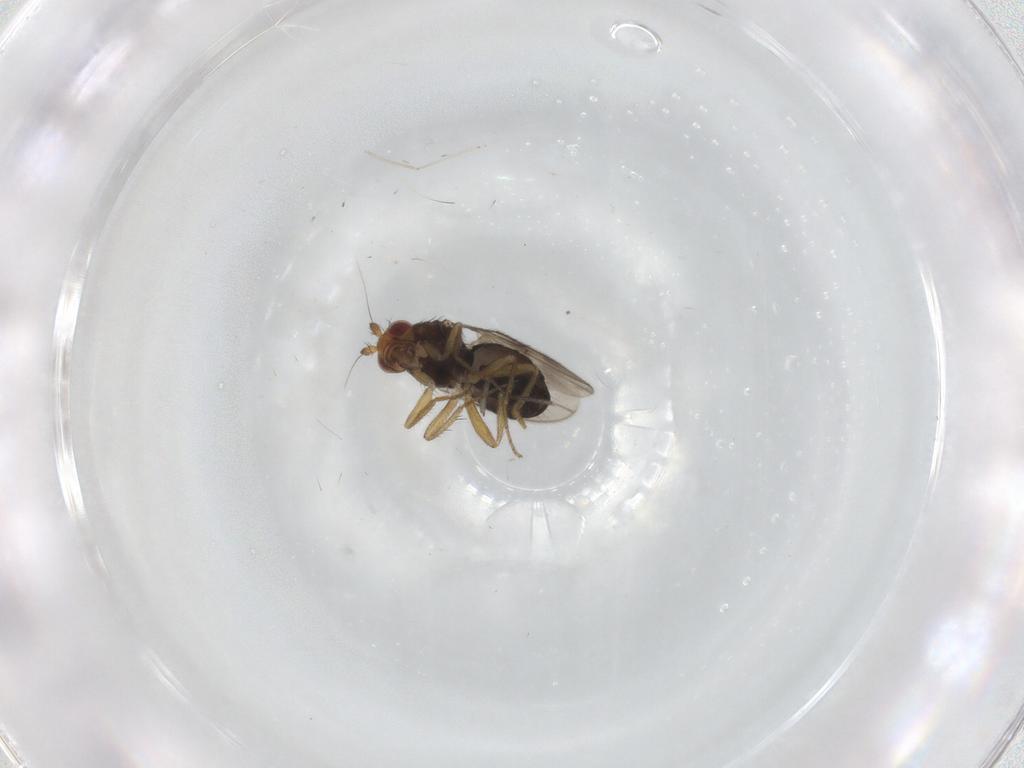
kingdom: Animalia
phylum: Arthropoda
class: Insecta
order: Diptera
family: Sphaeroceridae
